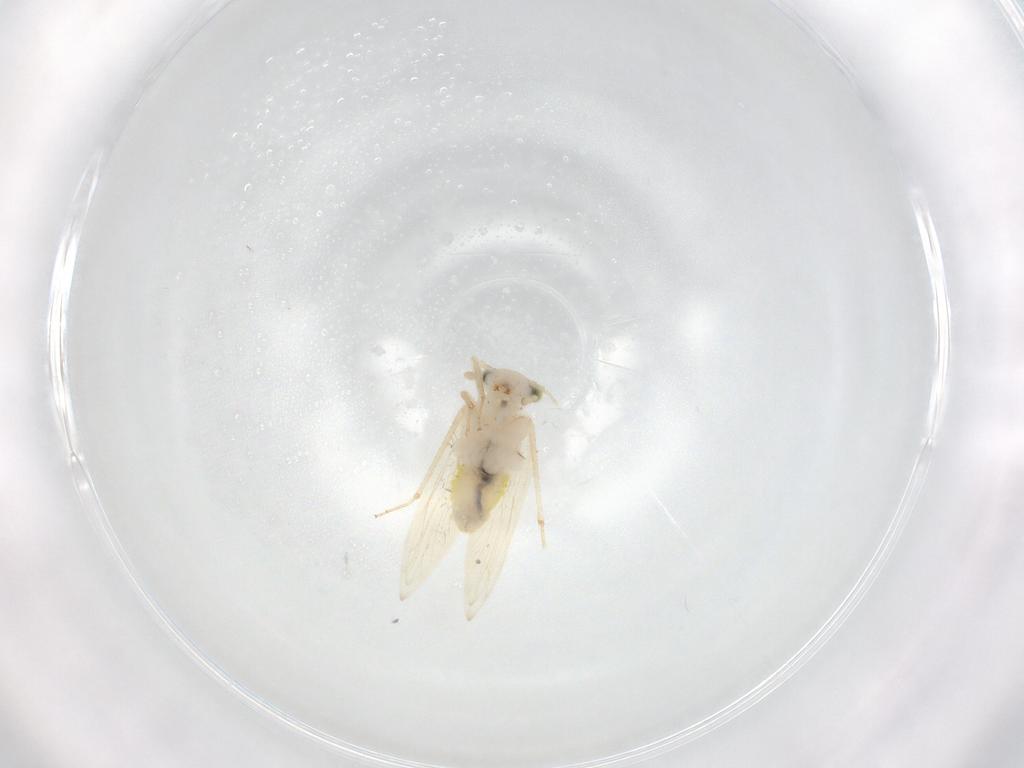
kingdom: Animalia
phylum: Arthropoda
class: Insecta
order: Psocodea
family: Lepidopsocidae
